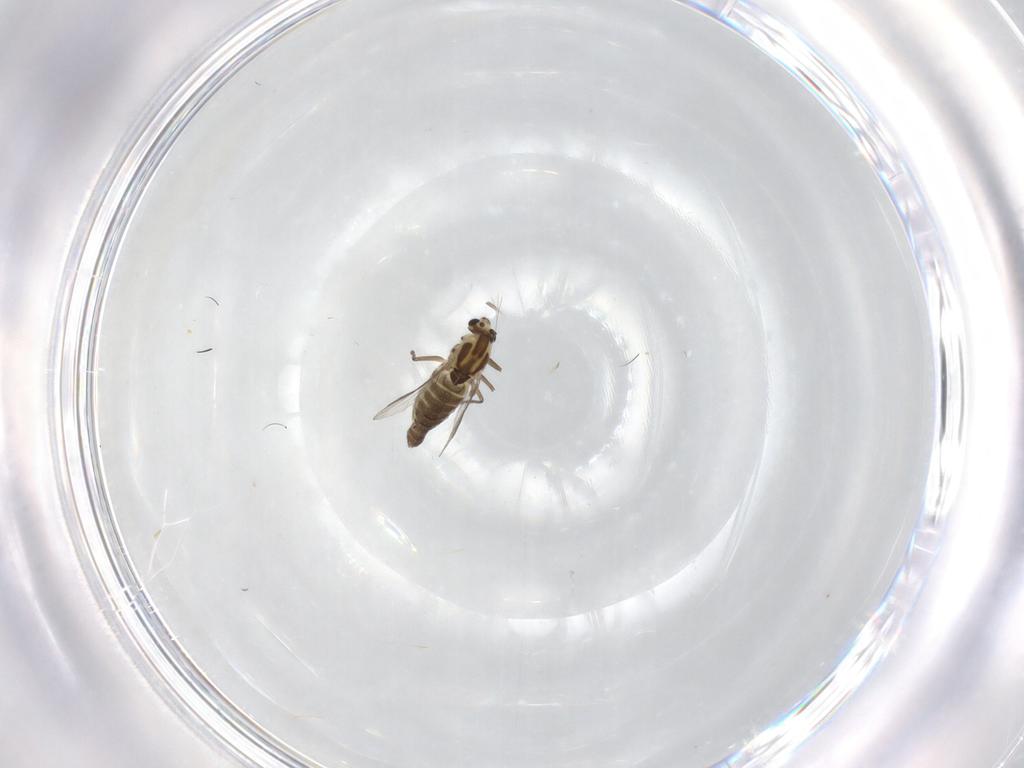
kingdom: Animalia
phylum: Arthropoda
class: Insecta
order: Diptera
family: Chironomidae
